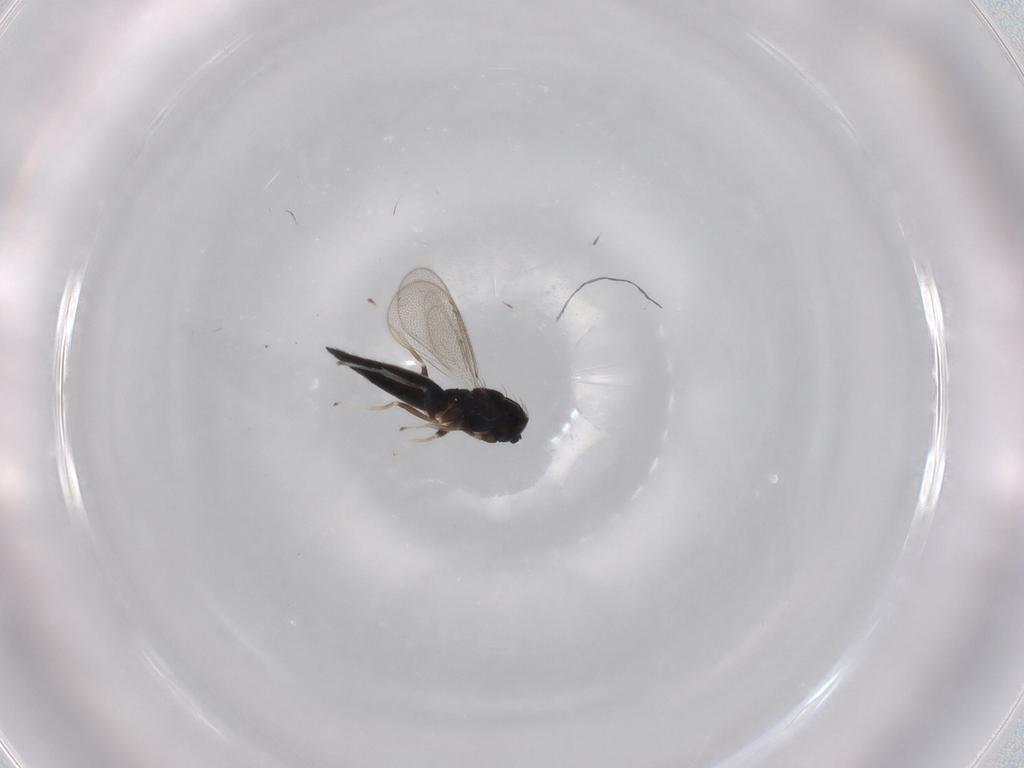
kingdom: Animalia
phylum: Arthropoda
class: Insecta
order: Hymenoptera
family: Eulophidae
